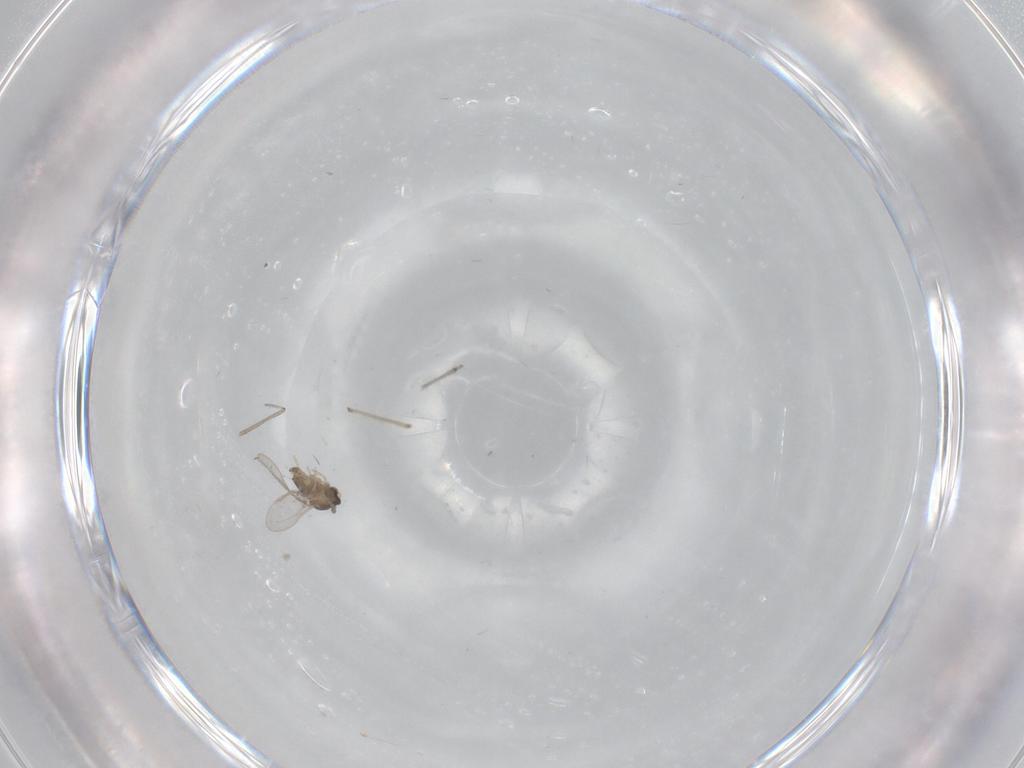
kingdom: Animalia
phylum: Arthropoda
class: Insecta
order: Diptera
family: Cecidomyiidae
